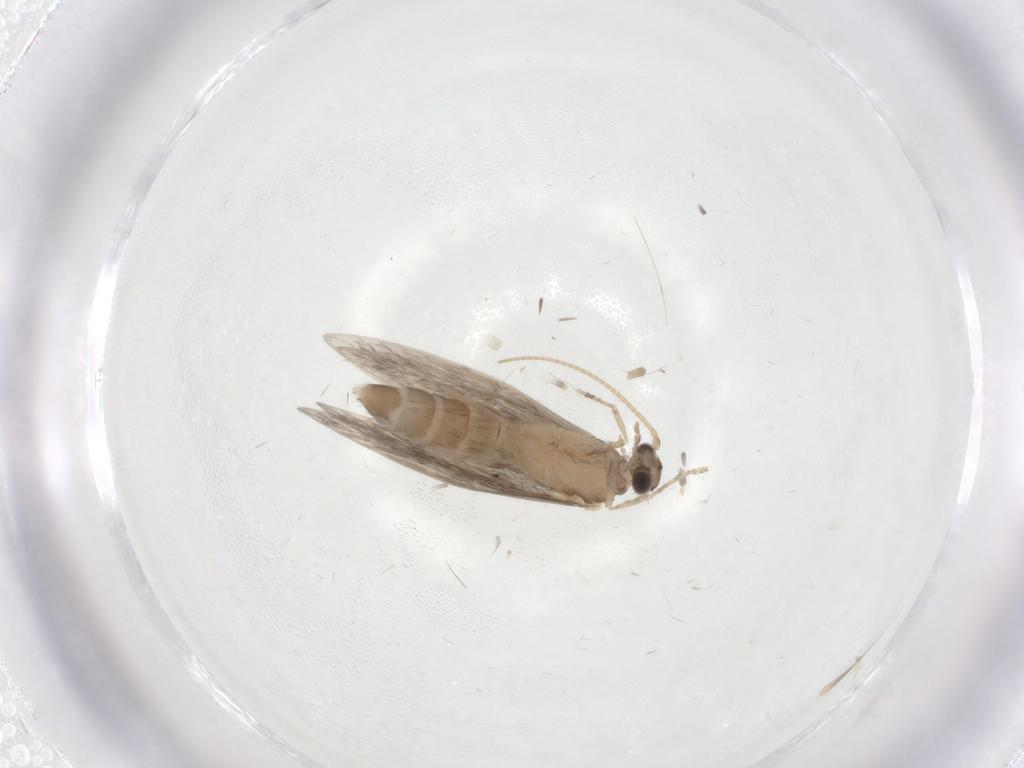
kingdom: Animalia
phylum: Arthropoda
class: Insecta
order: Trichoptera
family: Hydroptilidae
